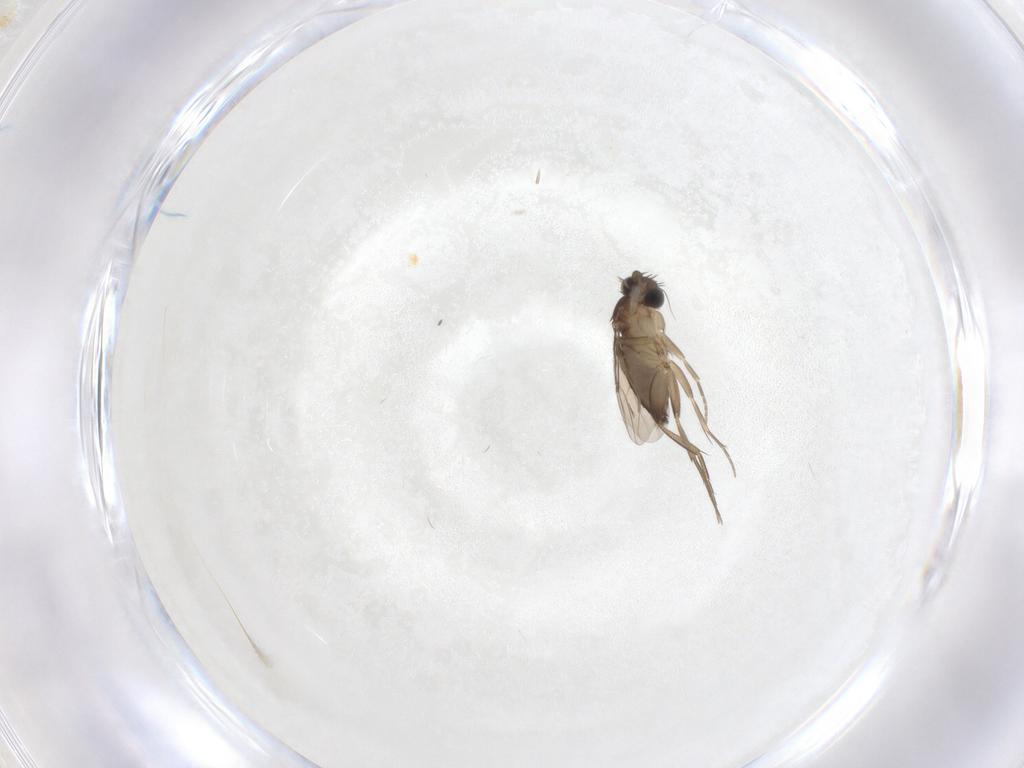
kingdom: Animalia
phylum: Arthropoda
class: Insecta
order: Diptera
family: Phoridae
